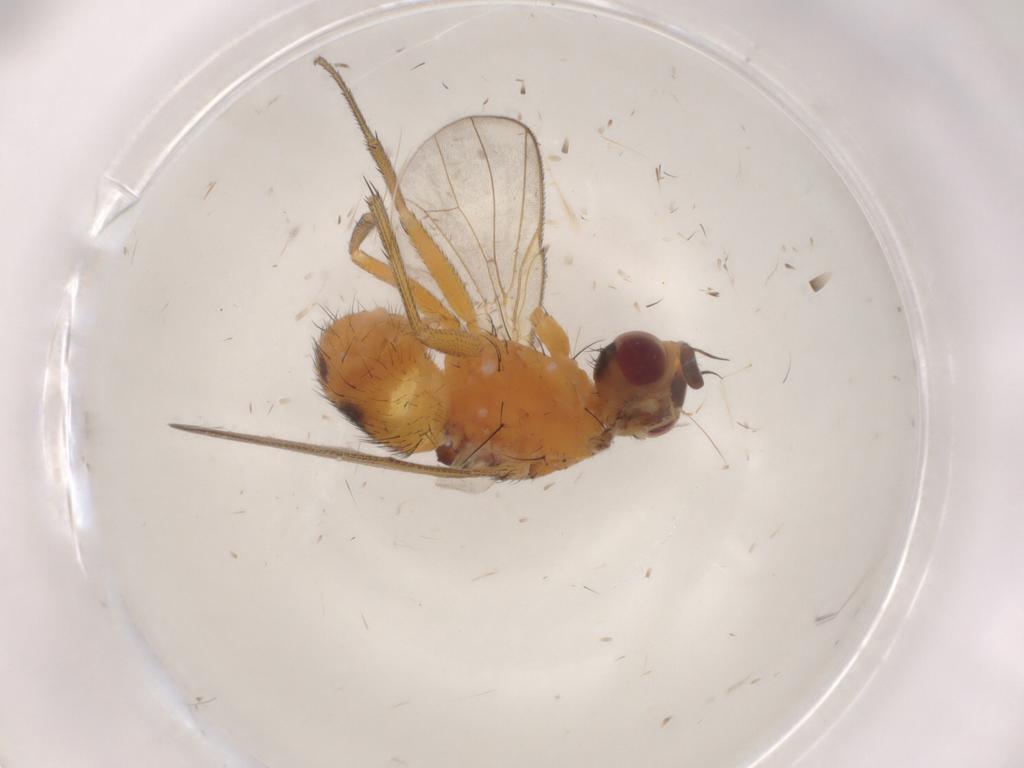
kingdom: Animalia
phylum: Arthropoda
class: Insecta
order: Diptera
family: Muscidae
